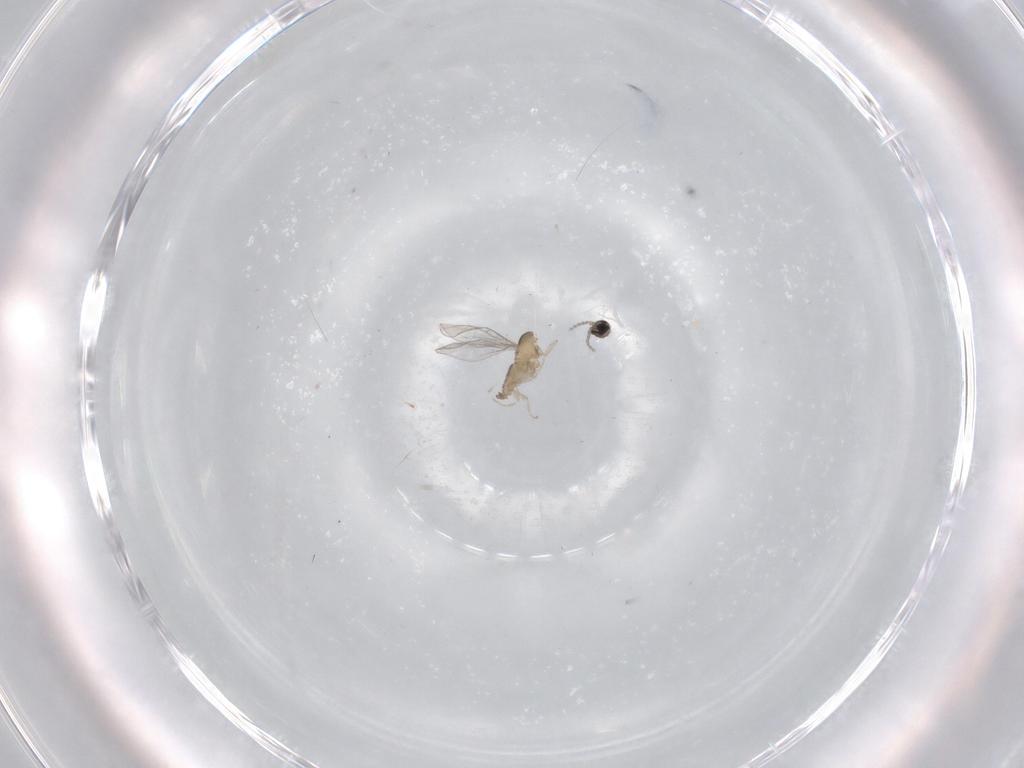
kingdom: Animalia
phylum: Arthropoda
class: Insecta
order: Diptera
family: Cecidomyiidae
